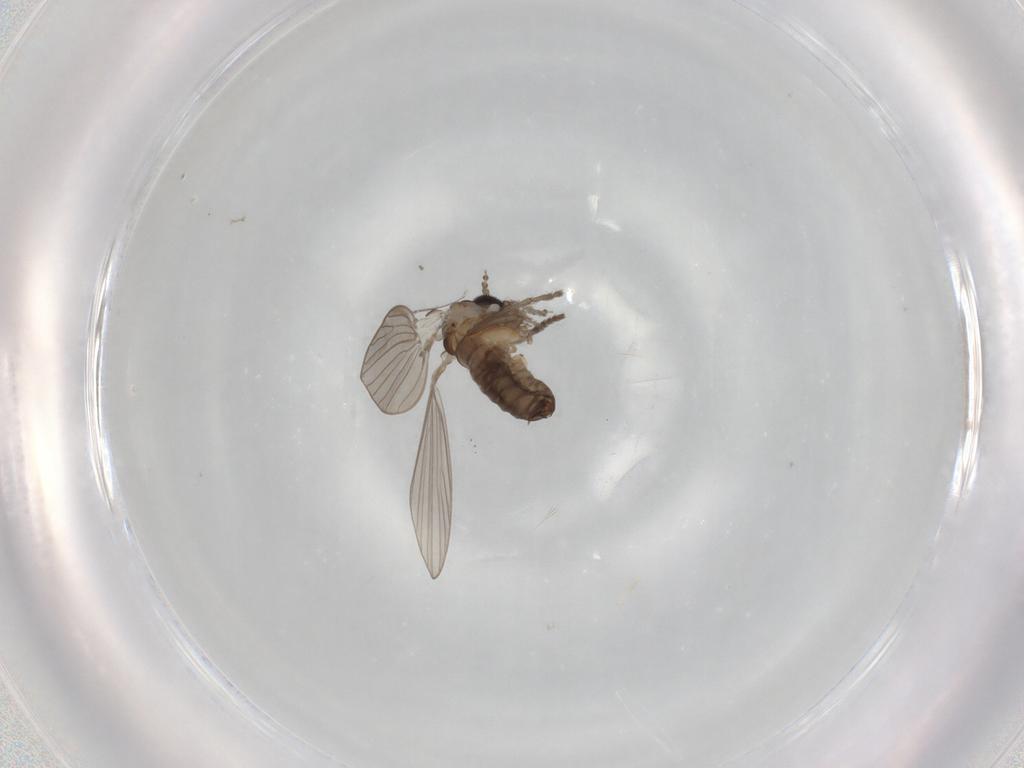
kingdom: Animalia
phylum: Arthropoda
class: Insecta
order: Diptera
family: Psychodidae
